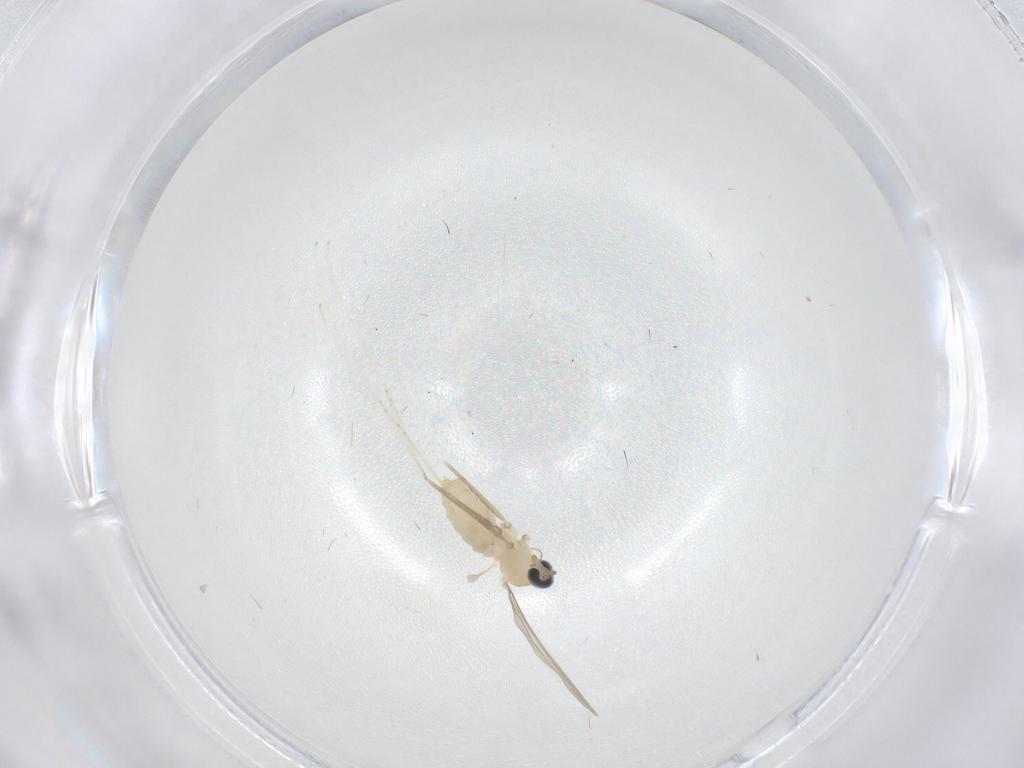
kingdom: Animalia
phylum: Arthropoda
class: Insecta
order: Diptera
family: Cecidomyiidae
